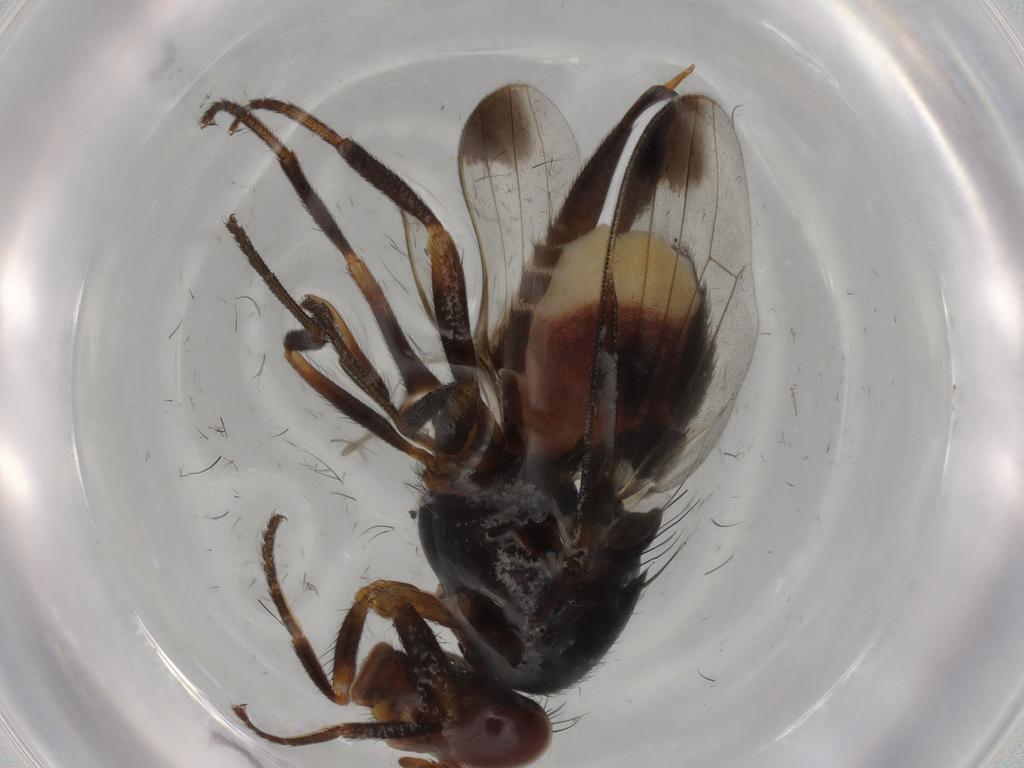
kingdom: Animalia
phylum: Arthropoda
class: Insecta
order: Diptera
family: Ulidiidae
